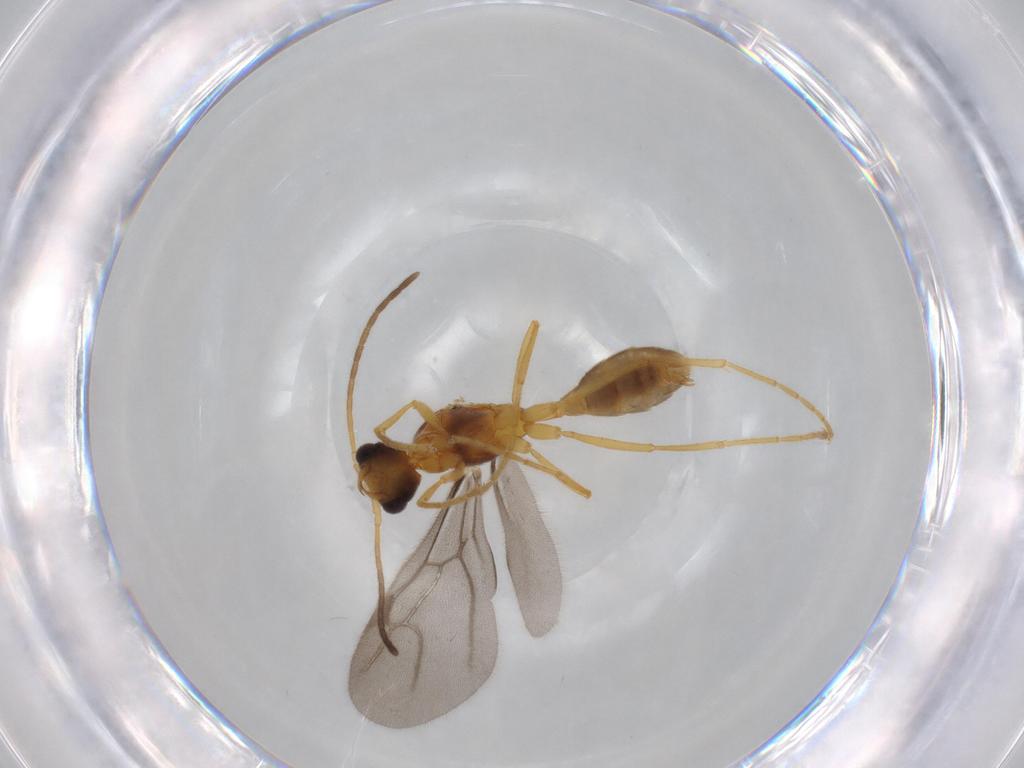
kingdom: Animalia
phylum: Arthropoda
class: Insecta
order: Hymenoptera
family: Formicidae
